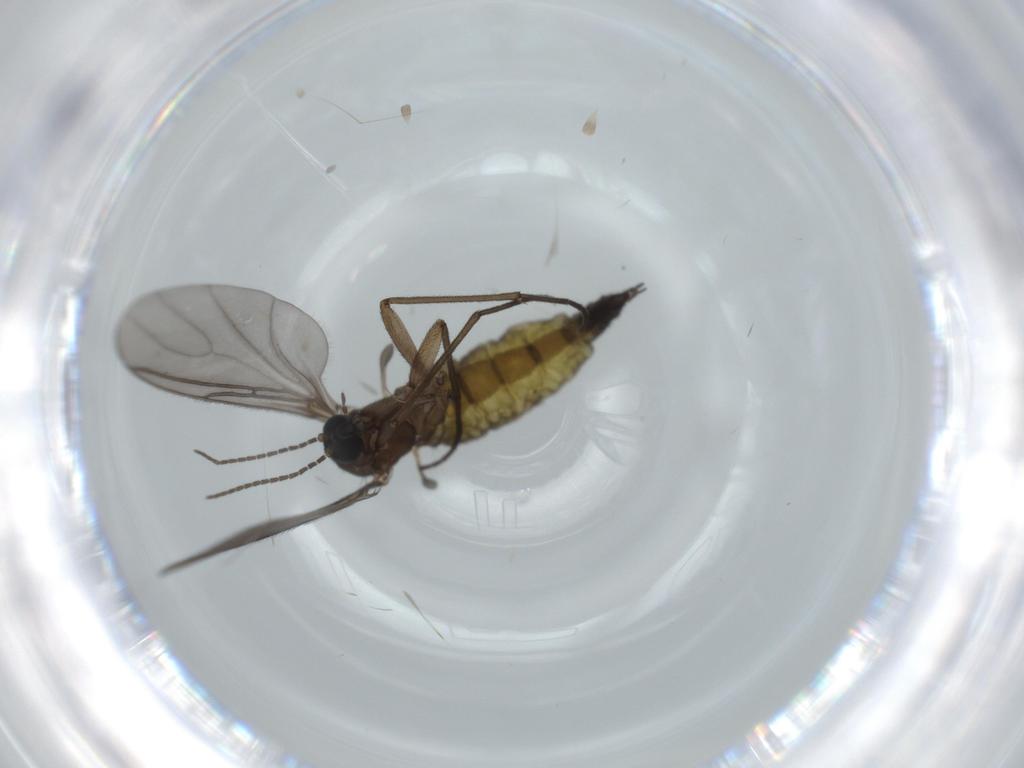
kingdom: Animalia
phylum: Arthropoda
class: Insecta
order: Diptera
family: Sciaridae
